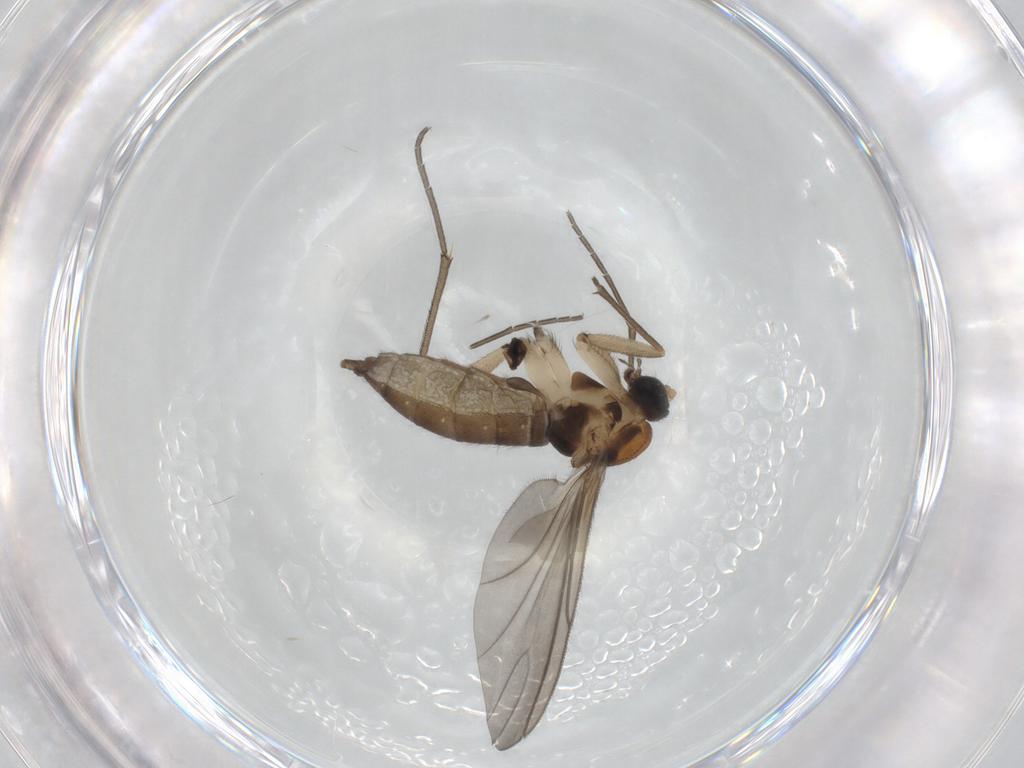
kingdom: Animalia
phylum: Arthropoda
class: Insecta
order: Diptera
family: Sciaridae
